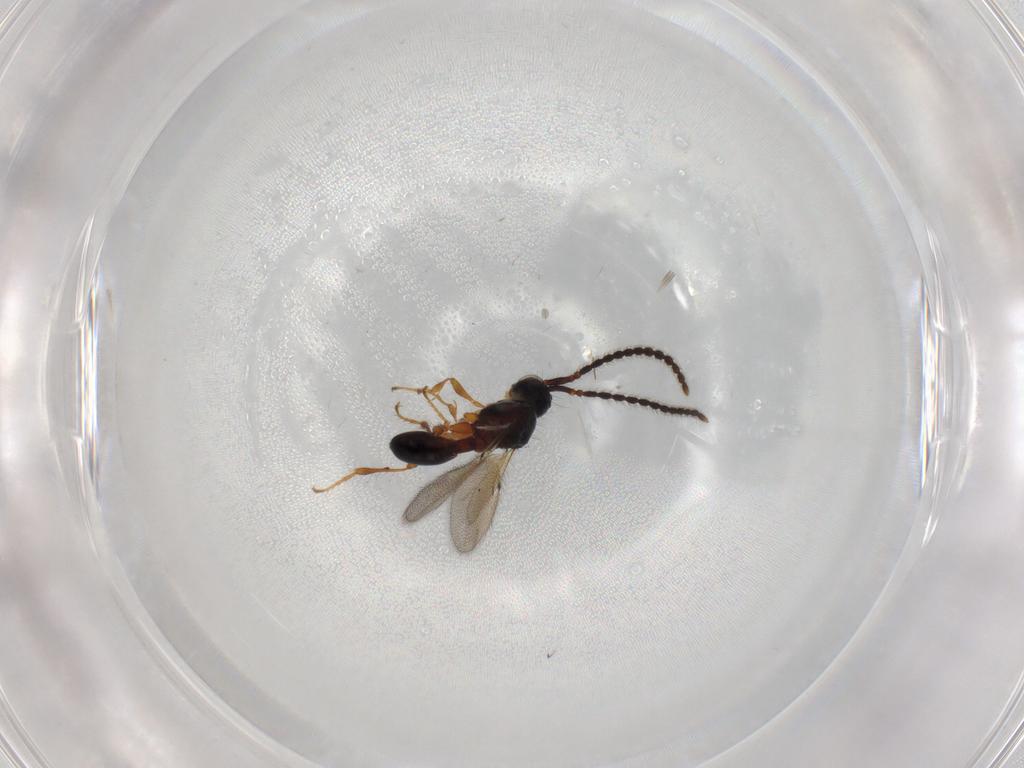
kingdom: Animalia
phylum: Arthropoda
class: Insecta
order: Hymenoptera
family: Diapriidae
